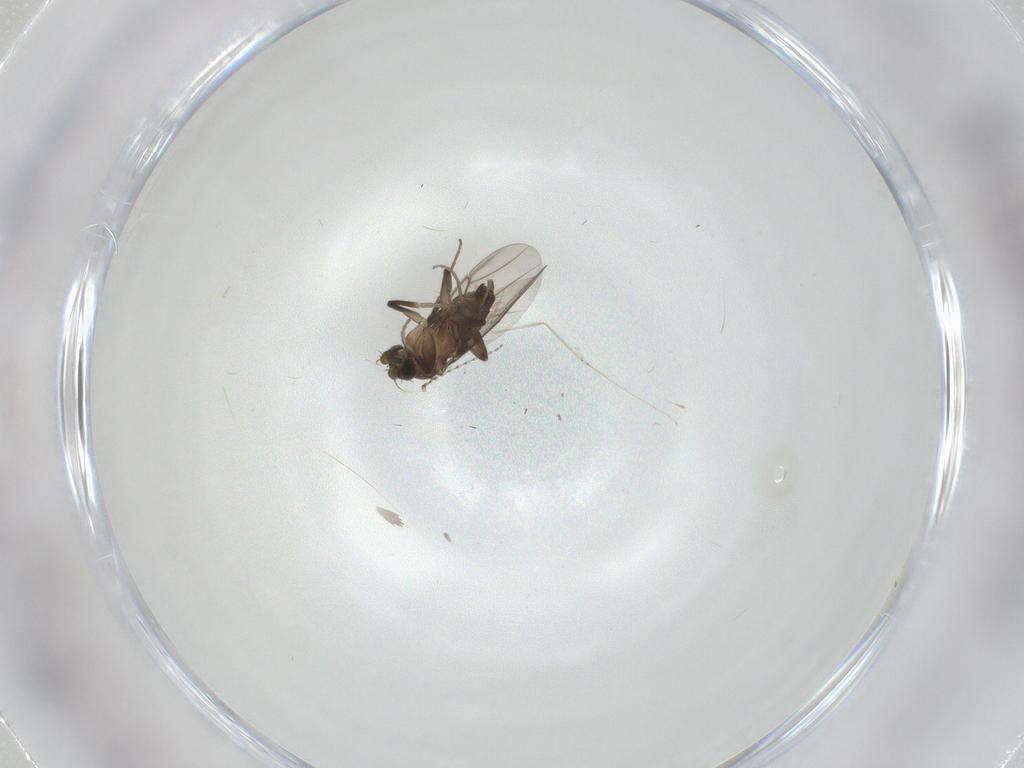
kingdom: Animalia
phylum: Arthropoda
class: Insecta
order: Diptera
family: Phoridae
